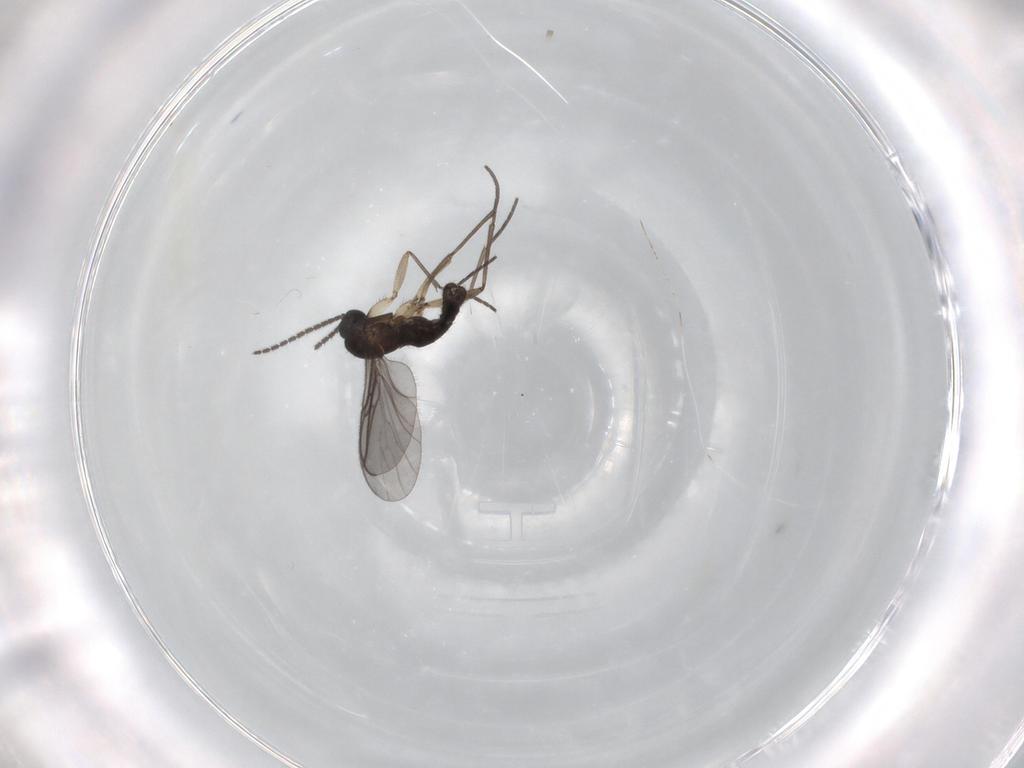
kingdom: Animalia
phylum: Arthropoda
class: Insecta
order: Diptera
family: Sciaridae
